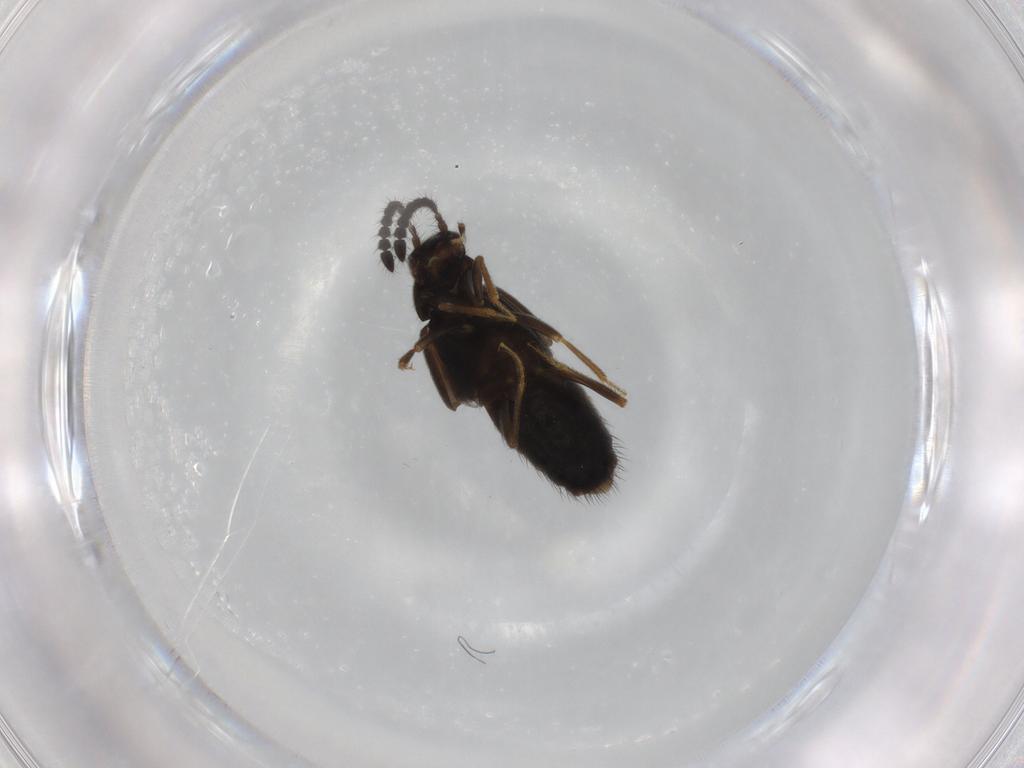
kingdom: Animalia
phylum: Arthropoda
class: Insecta
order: Coleoptera
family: Staphylinidae
